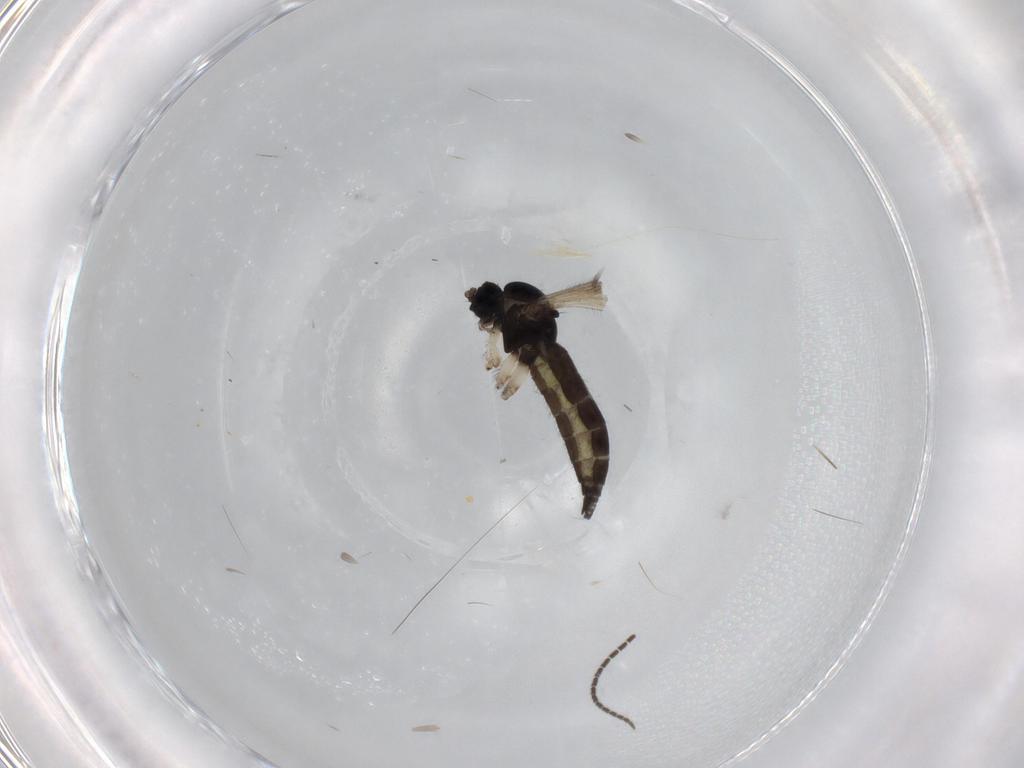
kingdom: Animalia
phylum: Arthropoda
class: Insecta
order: Diptera
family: Sciaridae
